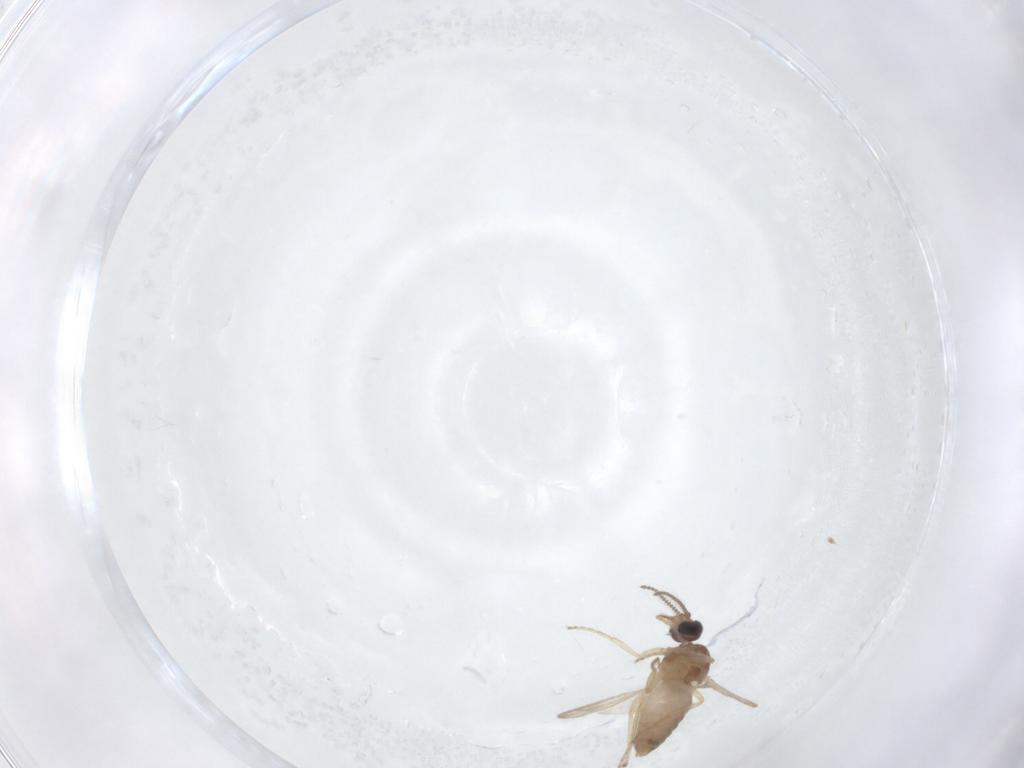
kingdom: Animalia
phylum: Arthropoda
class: Insecta
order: Diptera
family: Ceratopogonidae
